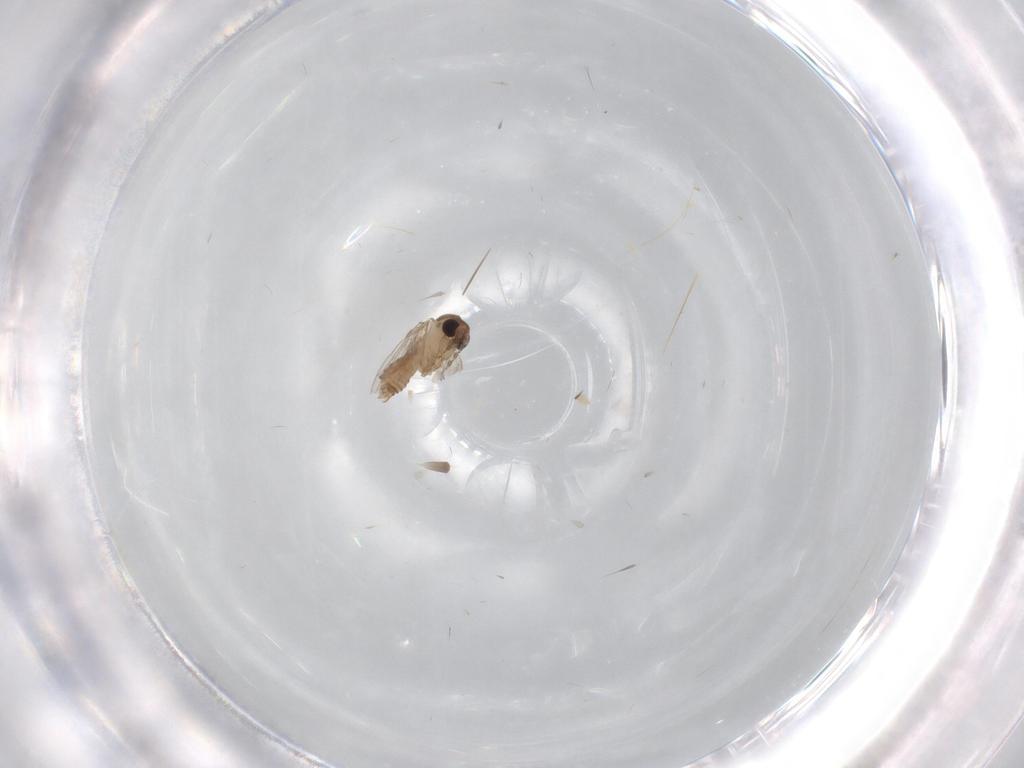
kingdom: Animalia
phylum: Arthropoda
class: Insecta
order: Diptera
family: Psychodidae
